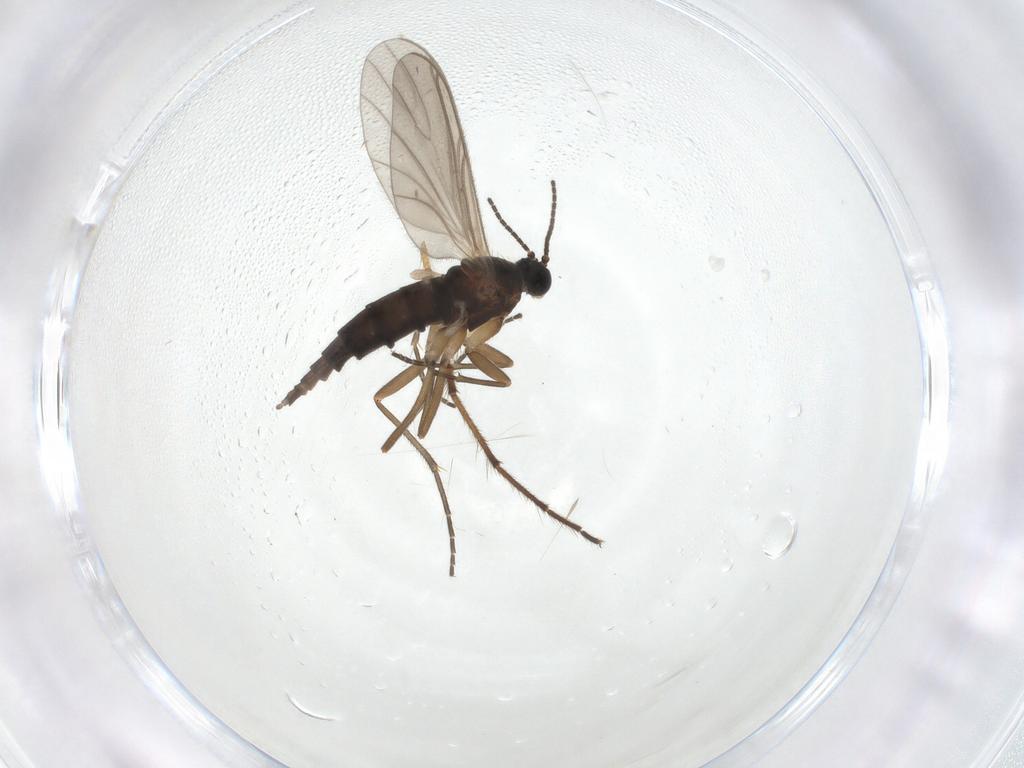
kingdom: Animalia
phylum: Arthropoda
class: Insecta
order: Diptera
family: Sciaridae
